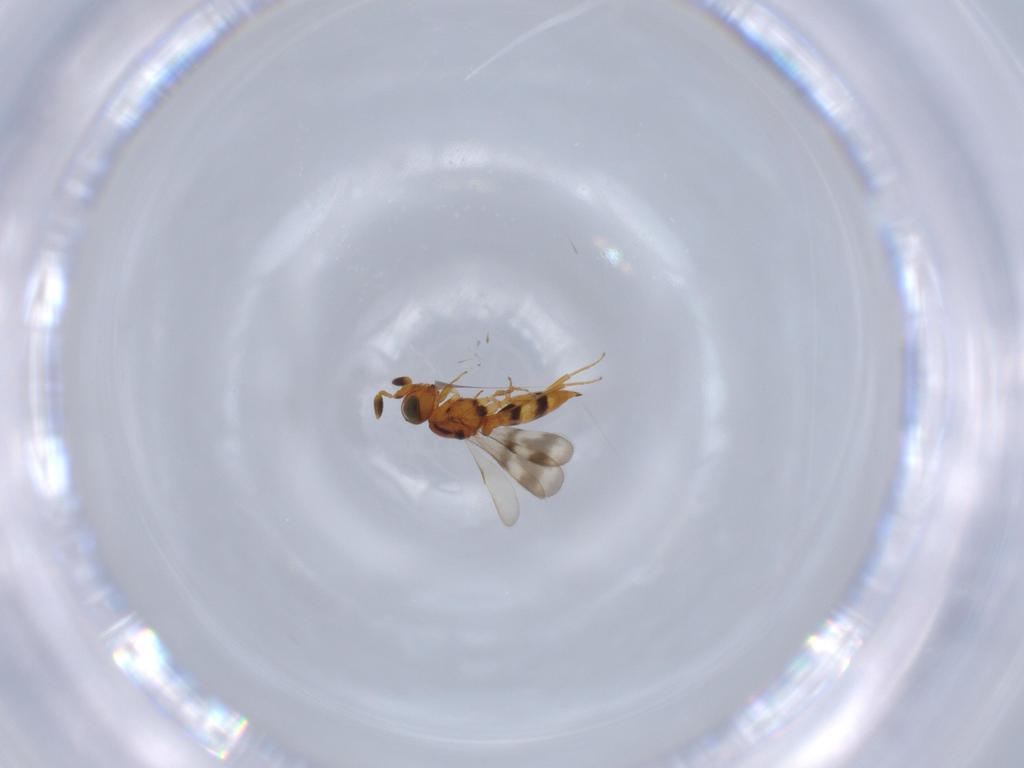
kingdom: Animalia
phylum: Arthropoda
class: Insecta
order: Hymenoptera
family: Scelionidae
